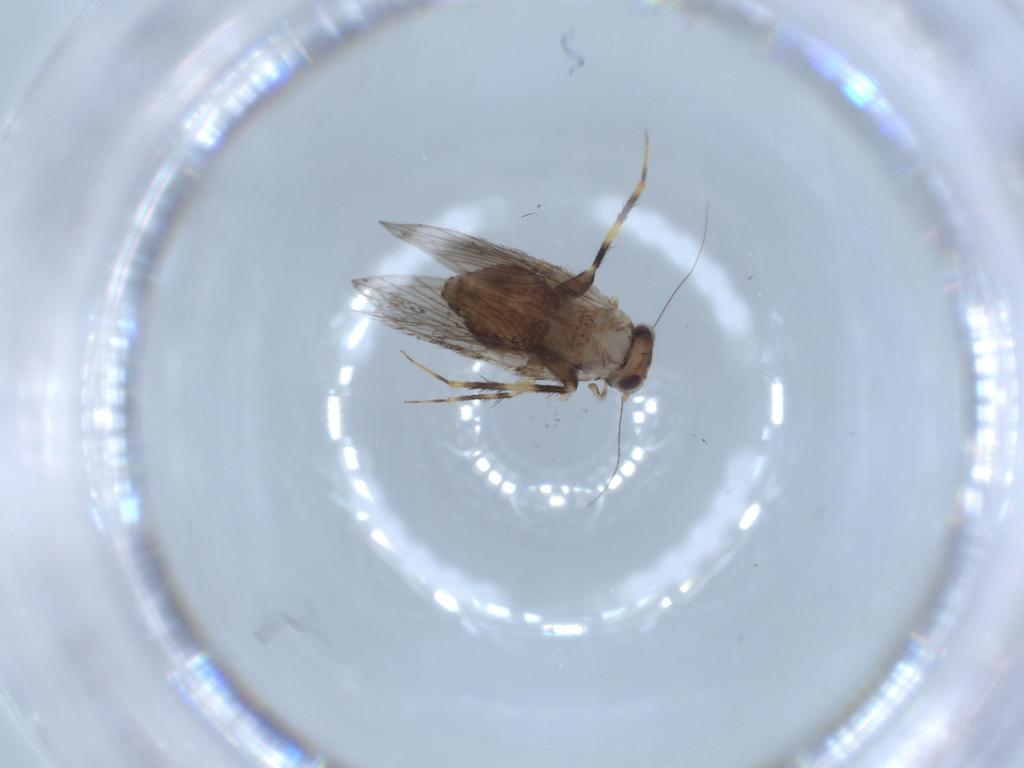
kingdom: Animalia
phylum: Arthropoda
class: Insecta
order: Psocodea
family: Lepidopsocidae
